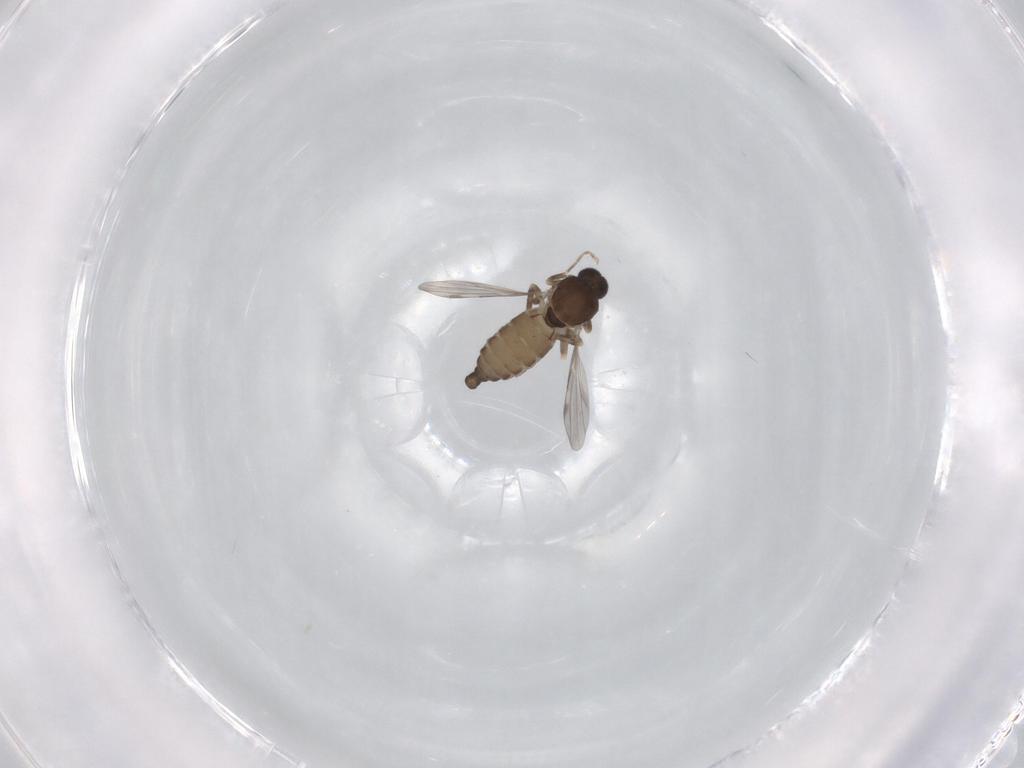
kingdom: Animalia
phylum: Arthropoda
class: Insecta
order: Diptera
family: Ceratopogonidae
